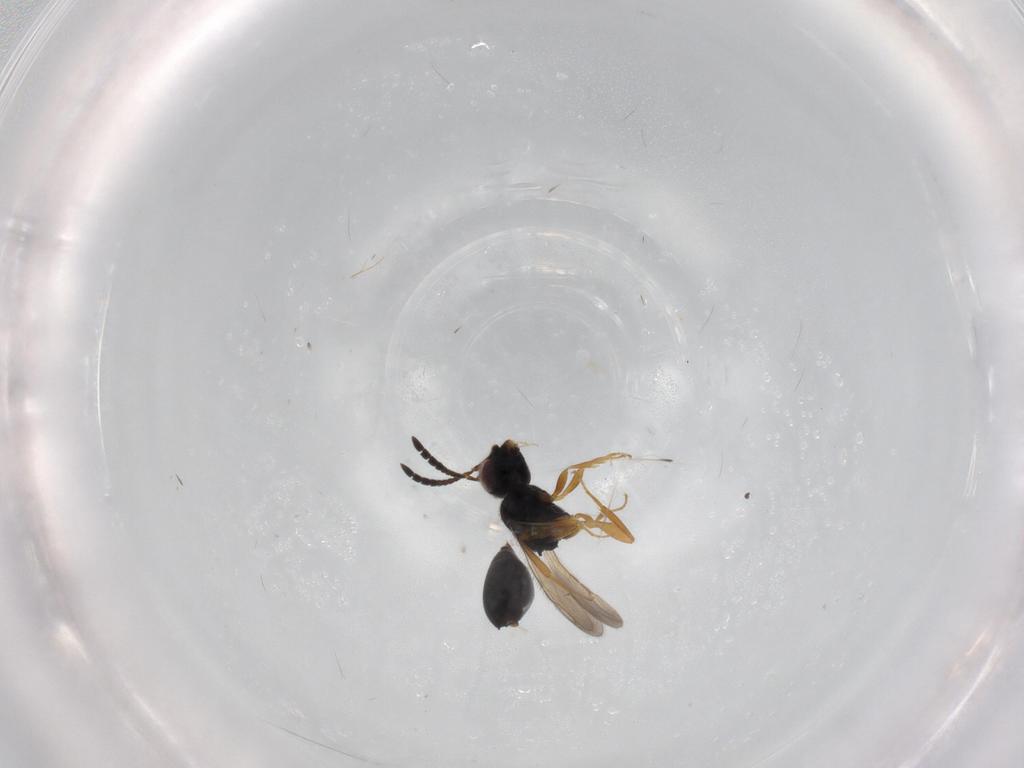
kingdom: Animalia
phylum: Arthropoda
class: Insecta
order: Hymenoptera
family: Ceraphronidae
